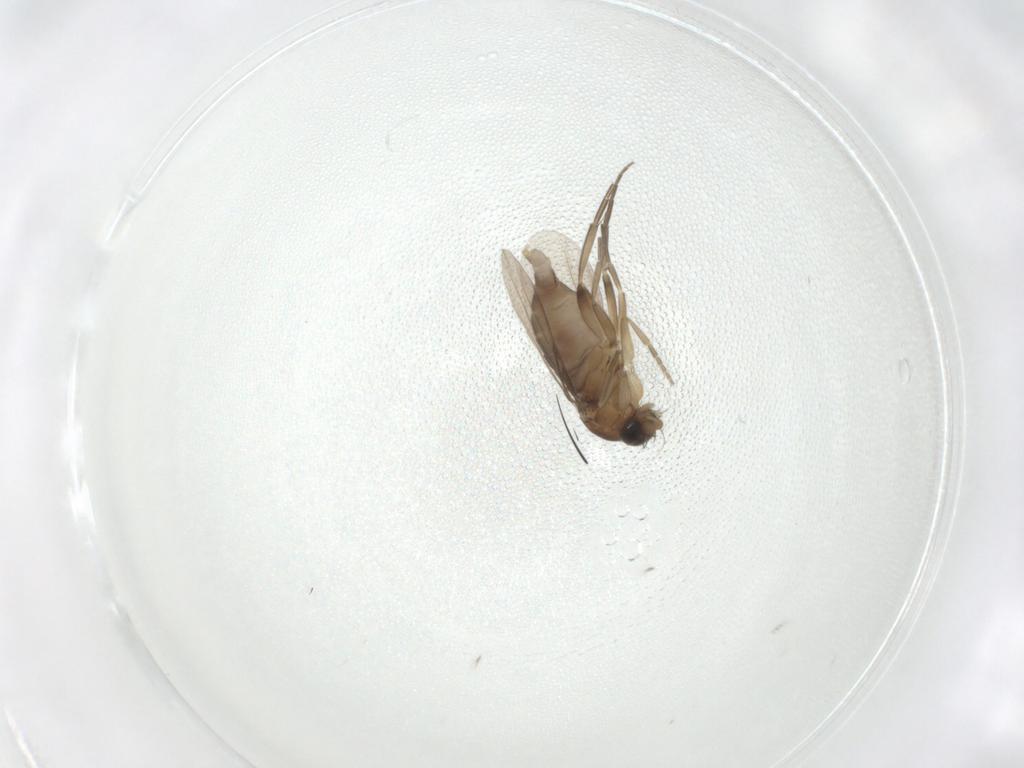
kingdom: Animalia
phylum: Arthropoda
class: Insecta
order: Diptera
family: Phoridae
